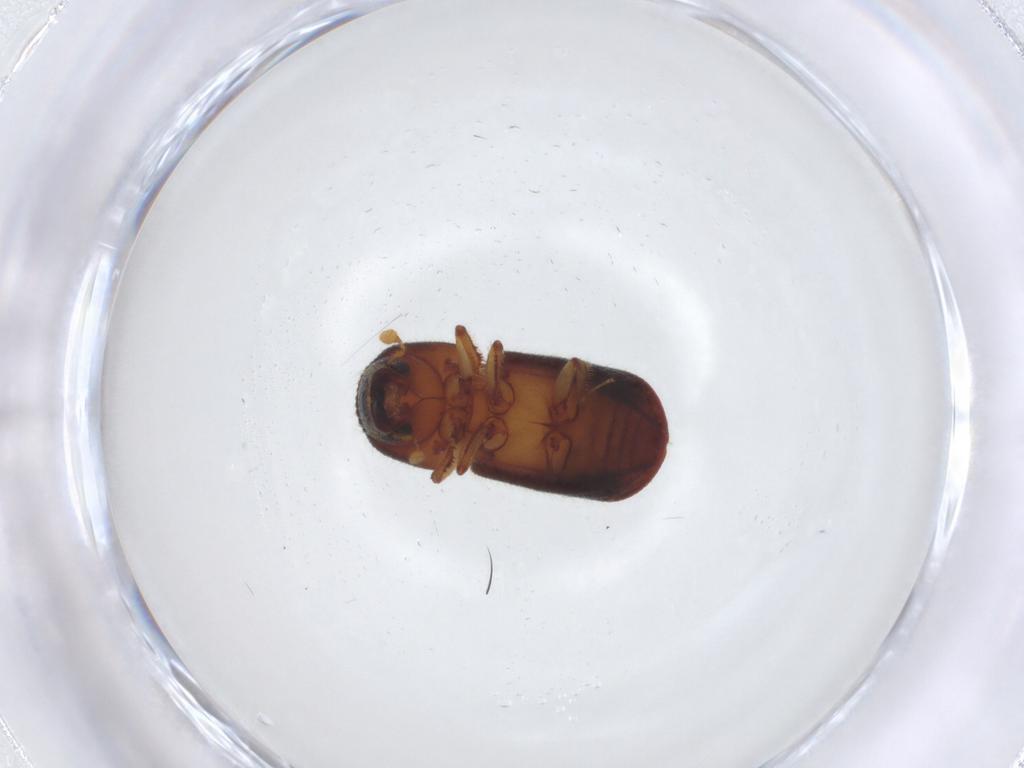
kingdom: Animalia
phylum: Arthropoda
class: Insecta
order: Coleoptera
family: Curculionidae
